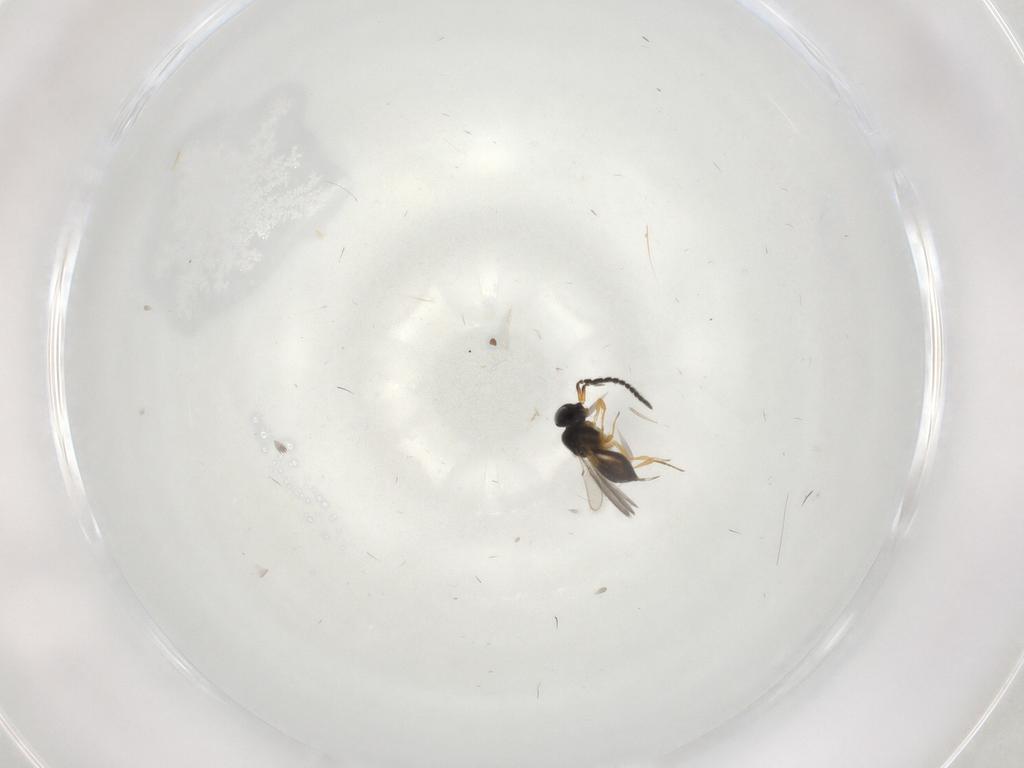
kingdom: Animalia
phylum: Arthropoda
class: Insecta
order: Hymenoptera
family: Scelionidae
